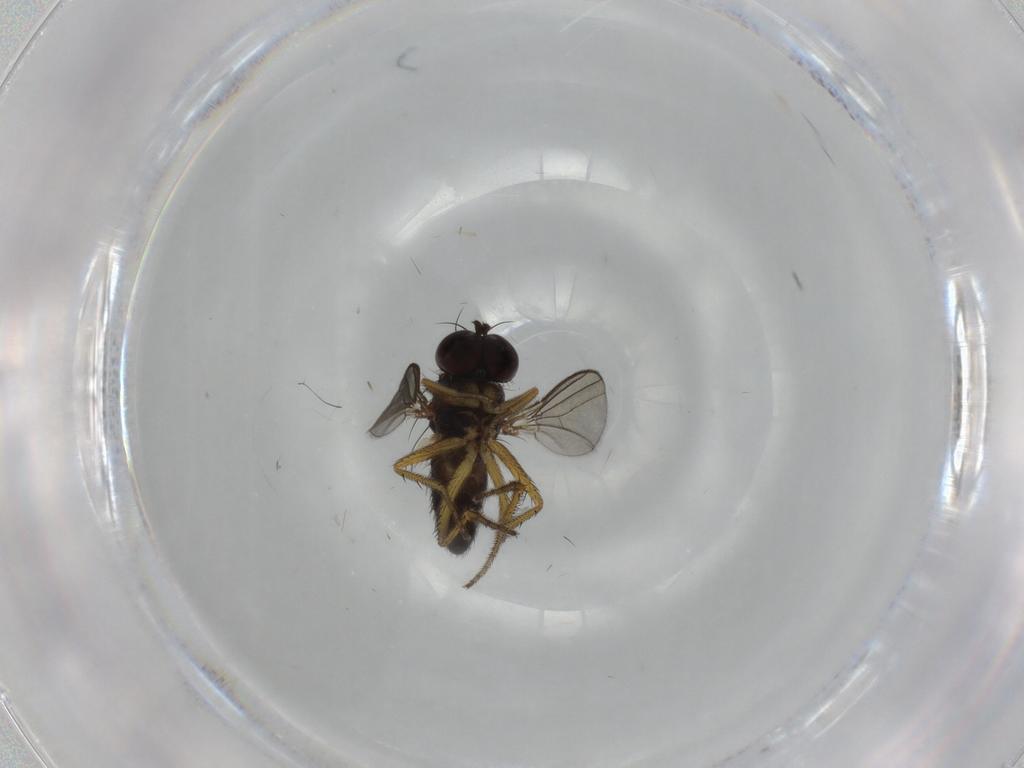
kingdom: Animalia
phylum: Arthropoda
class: Insecta
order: Diptera
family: Dolichopodidae
